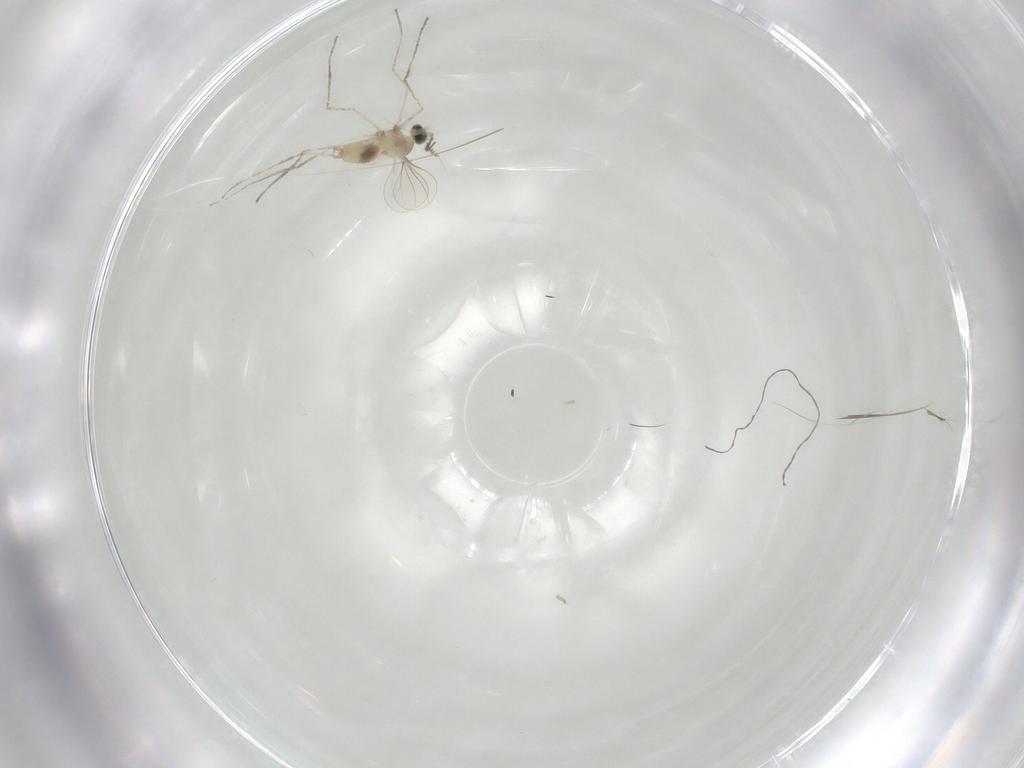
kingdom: Animalia
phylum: Arthropoda
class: Insecta
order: Diptera
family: Cecidomyiidae
